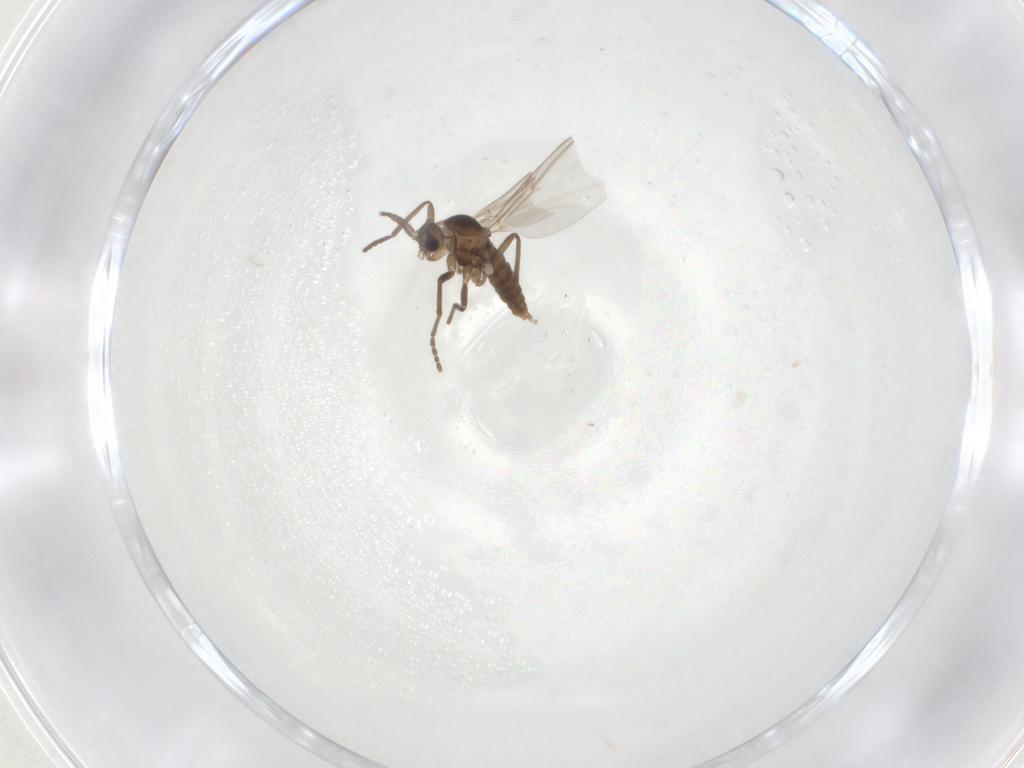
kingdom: Animalia
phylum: Arthropoda
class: Insecta
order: Diptera
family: Cecidomyiidae
